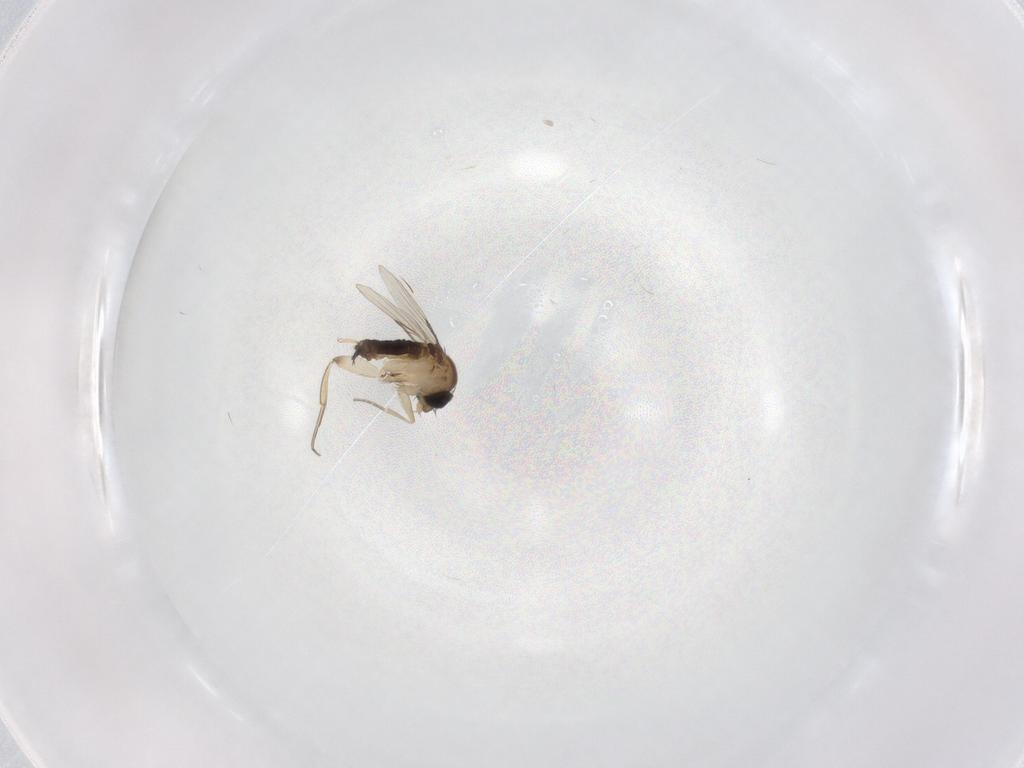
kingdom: Animalia
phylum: Arthropoda
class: Insecta
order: Diptera
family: Phoridae
